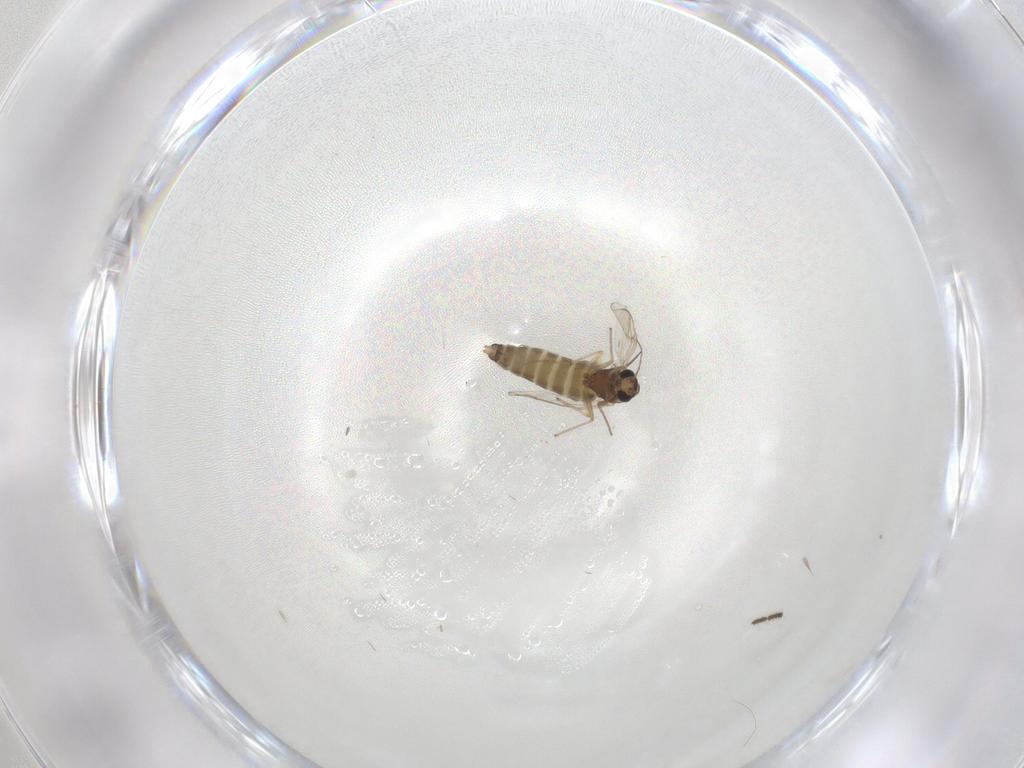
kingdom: Animalia
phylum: Arthropoda
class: Insecta
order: Diptera
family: Chironomidae
